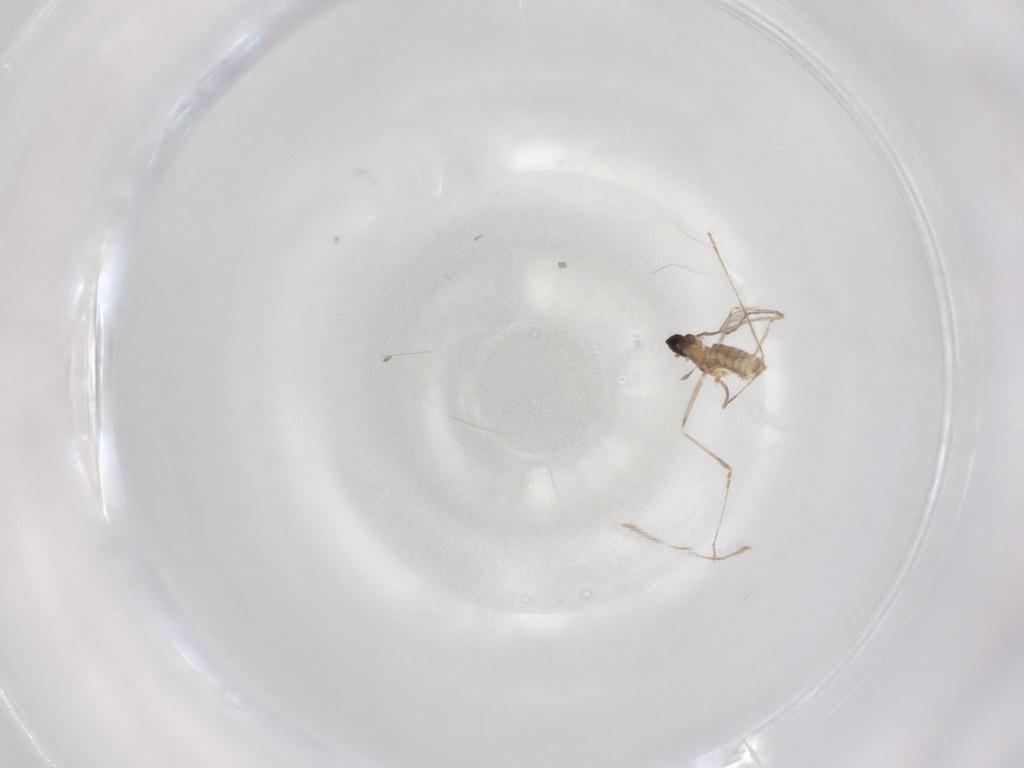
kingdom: Animalia
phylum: Arthropoda
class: Insecta
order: Diptera
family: Cecidomyiidae
